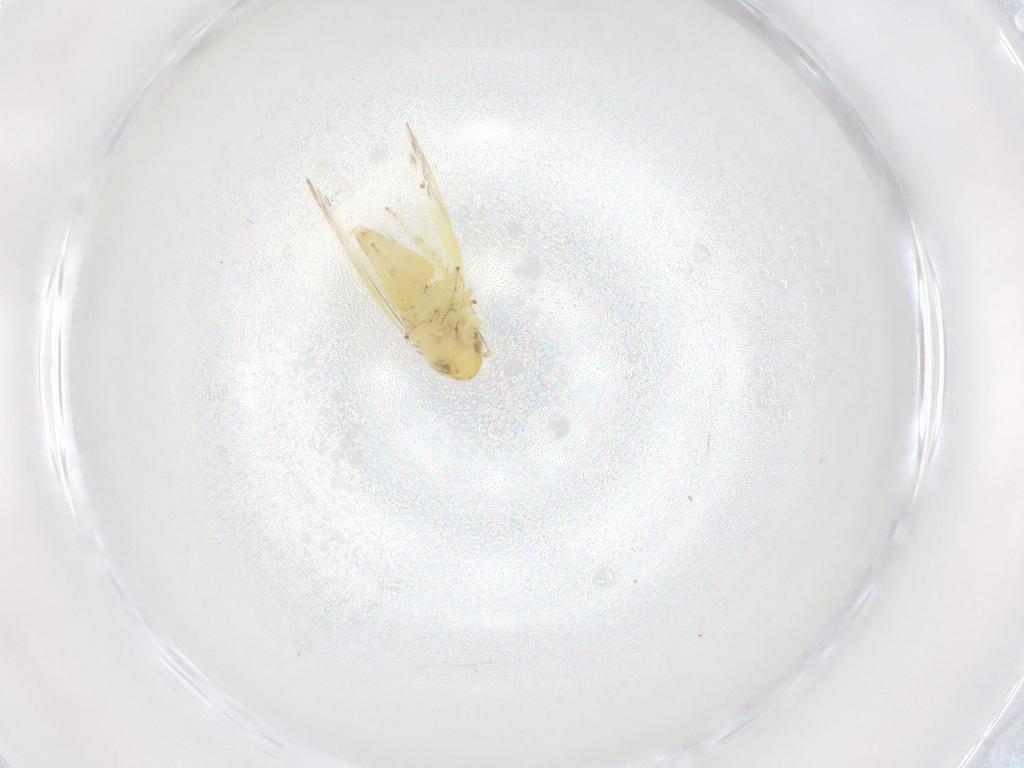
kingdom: Animalia
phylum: Arthropoda
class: Insecta
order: Hemiptera
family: Cicadellidae
